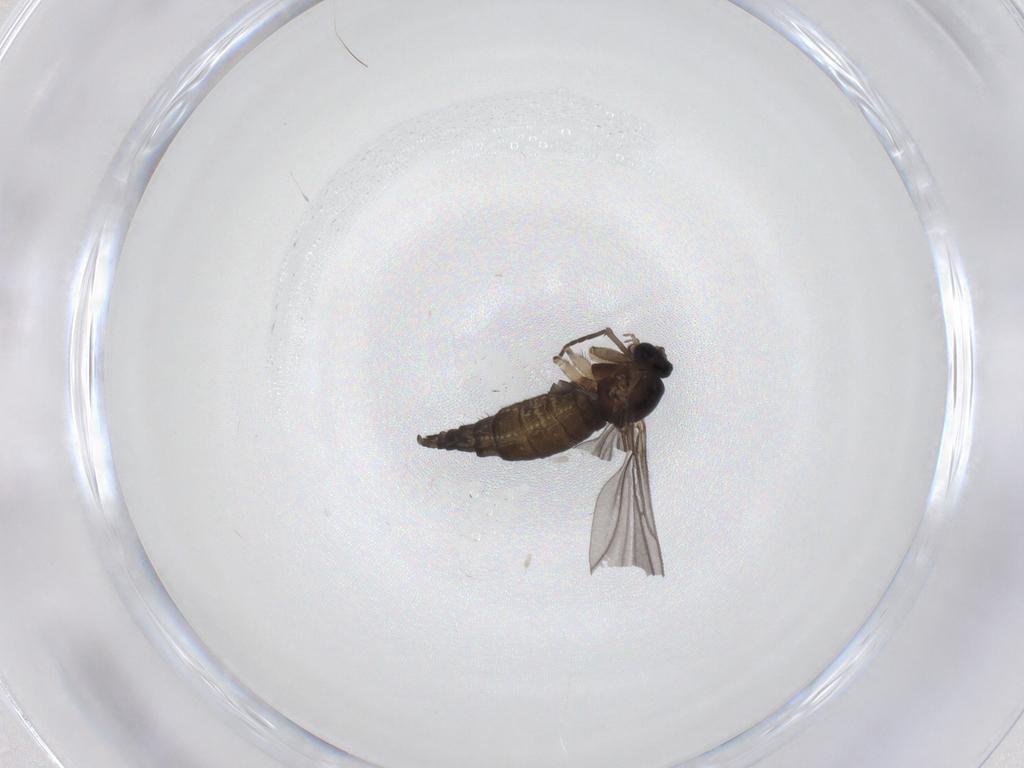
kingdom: Animalia
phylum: Arthropoda
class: Insecta
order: Diptera
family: Sciaridae
